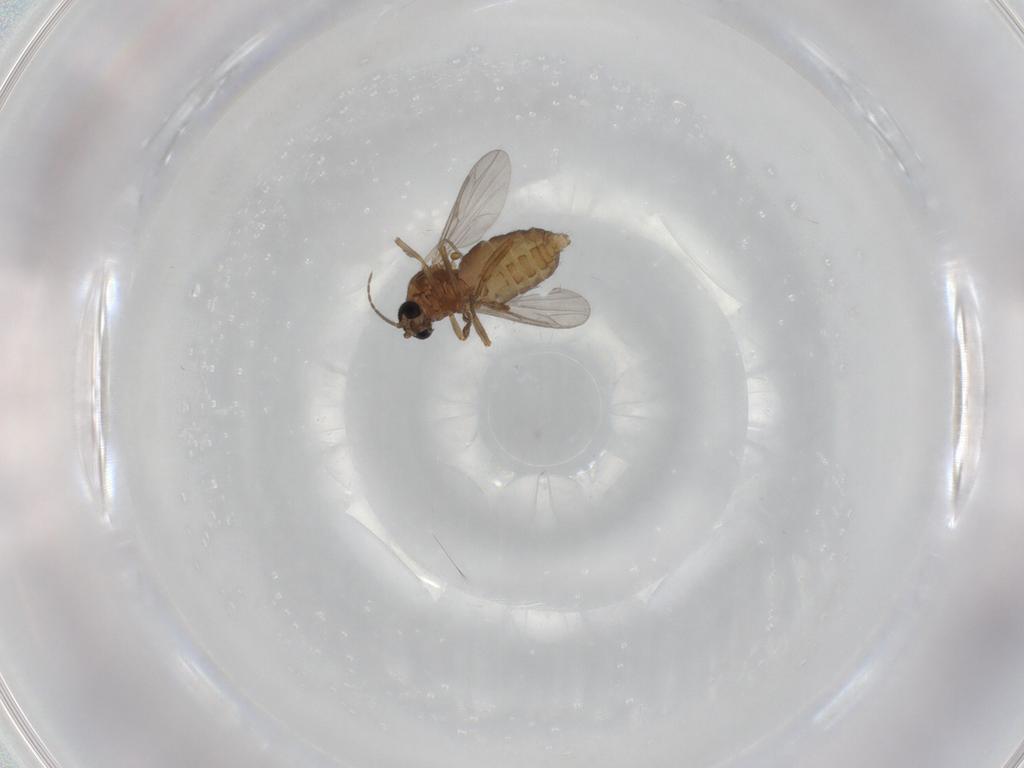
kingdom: Animalia
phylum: Arthropoda
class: Insecta
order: Diptera
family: Ceratopogonidae
